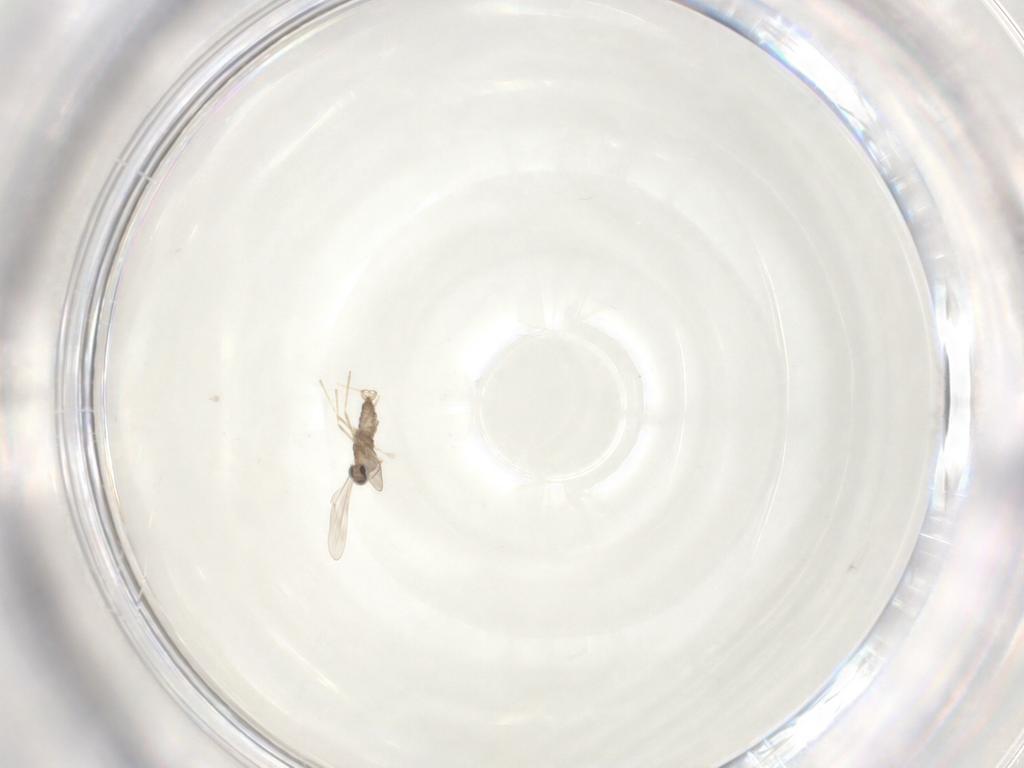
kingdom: Animalia
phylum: Arthropoda
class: Insecta
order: Diptera
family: Cecidomyiidae
